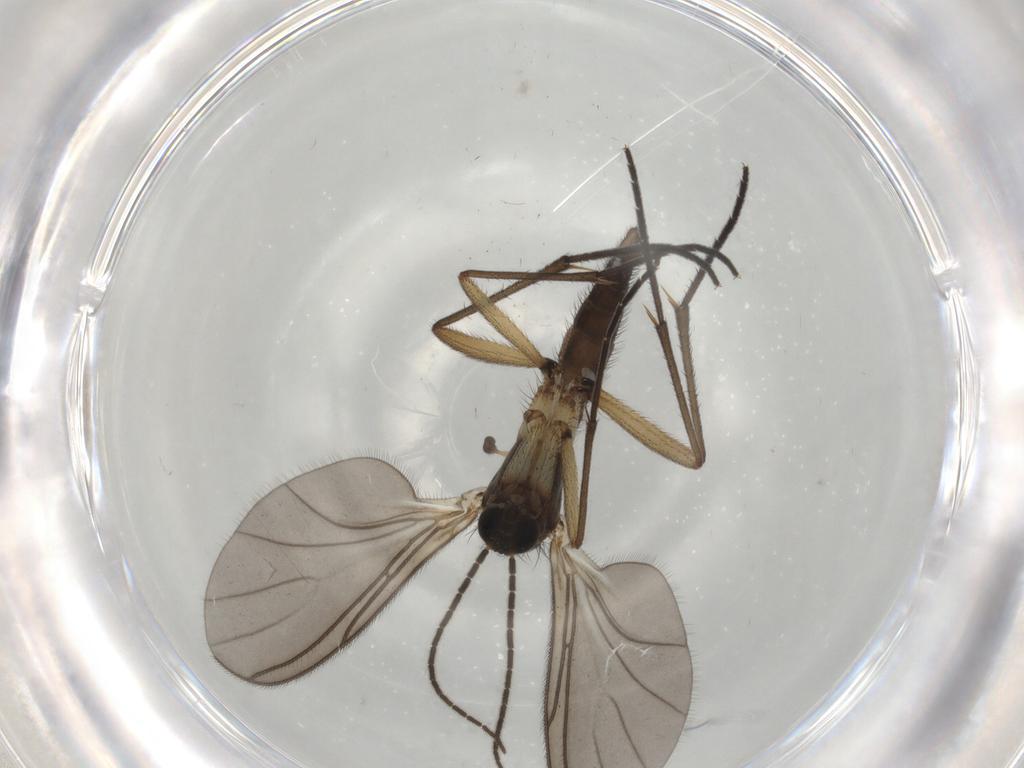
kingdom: Animalia
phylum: Arthropoda
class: Insecta
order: Diptera
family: Sciaridae
